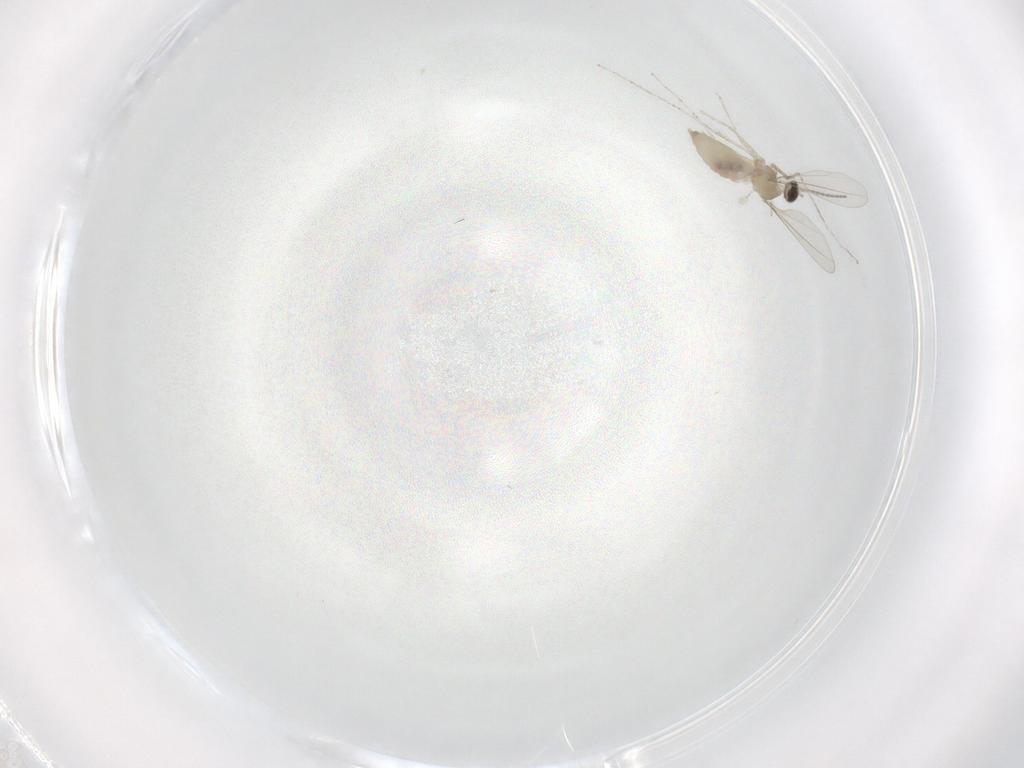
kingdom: Animalia
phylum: Arthropoda
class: Insecta
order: Diptera
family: Cecidomyiidae
